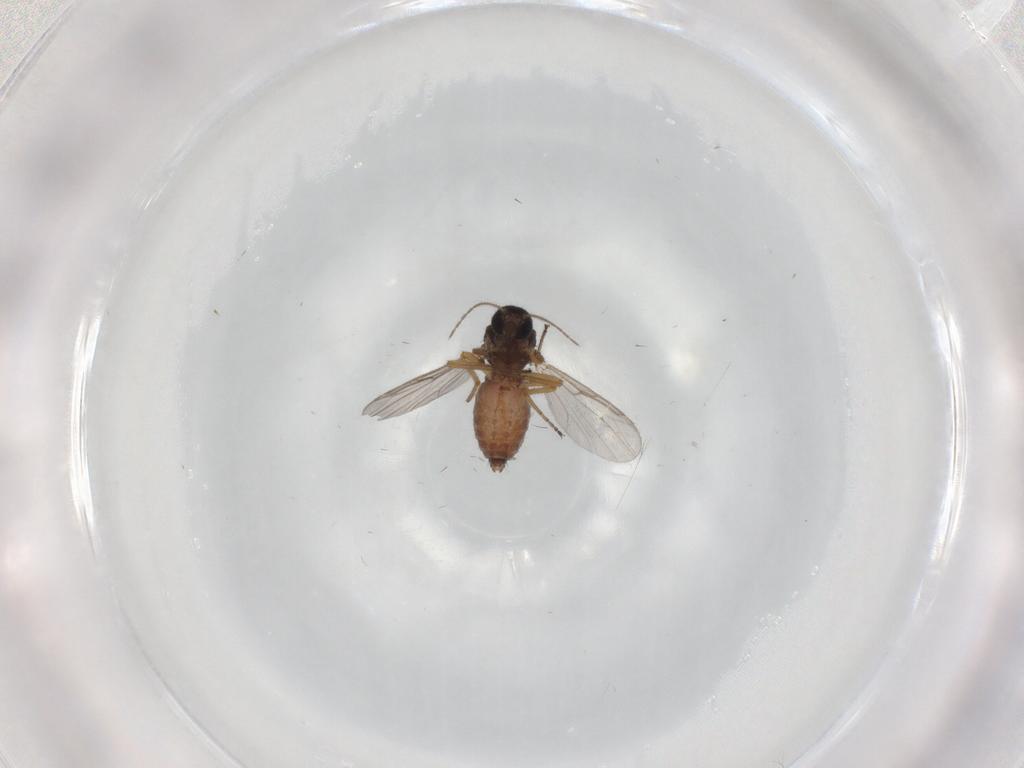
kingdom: Animalia
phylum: Arthropoda
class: Insecta
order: Diptera
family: Ceratopogonidae
